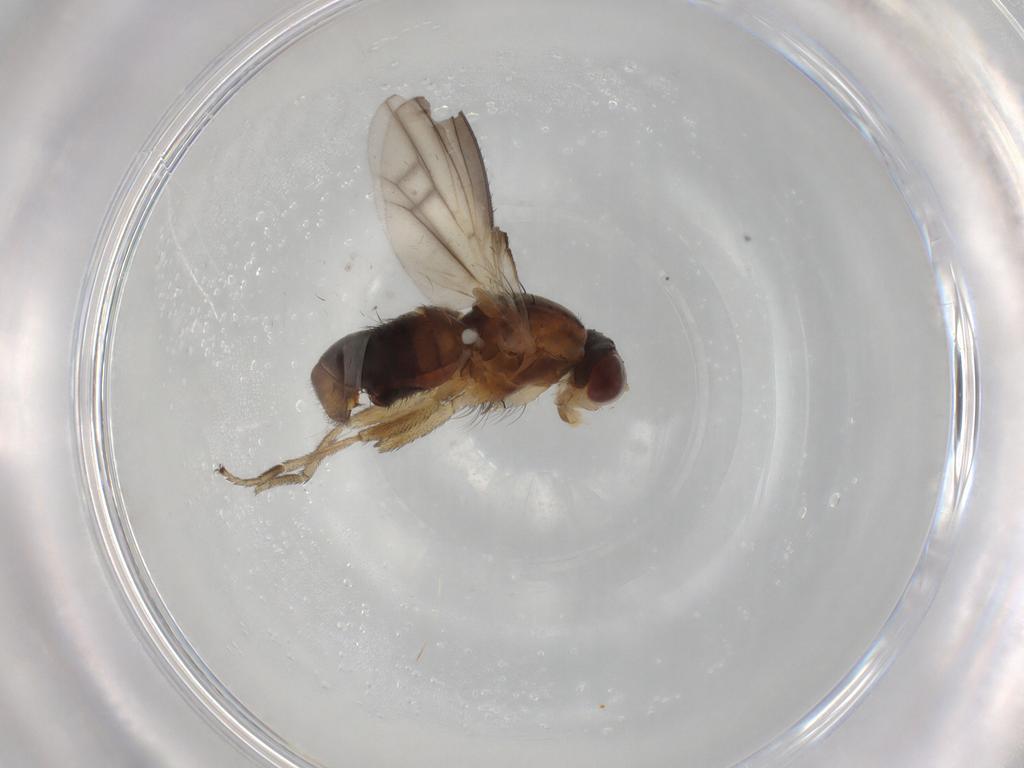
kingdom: Animalia
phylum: Arthropoda
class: Insecta
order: Diptera
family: Heleomyzidae
